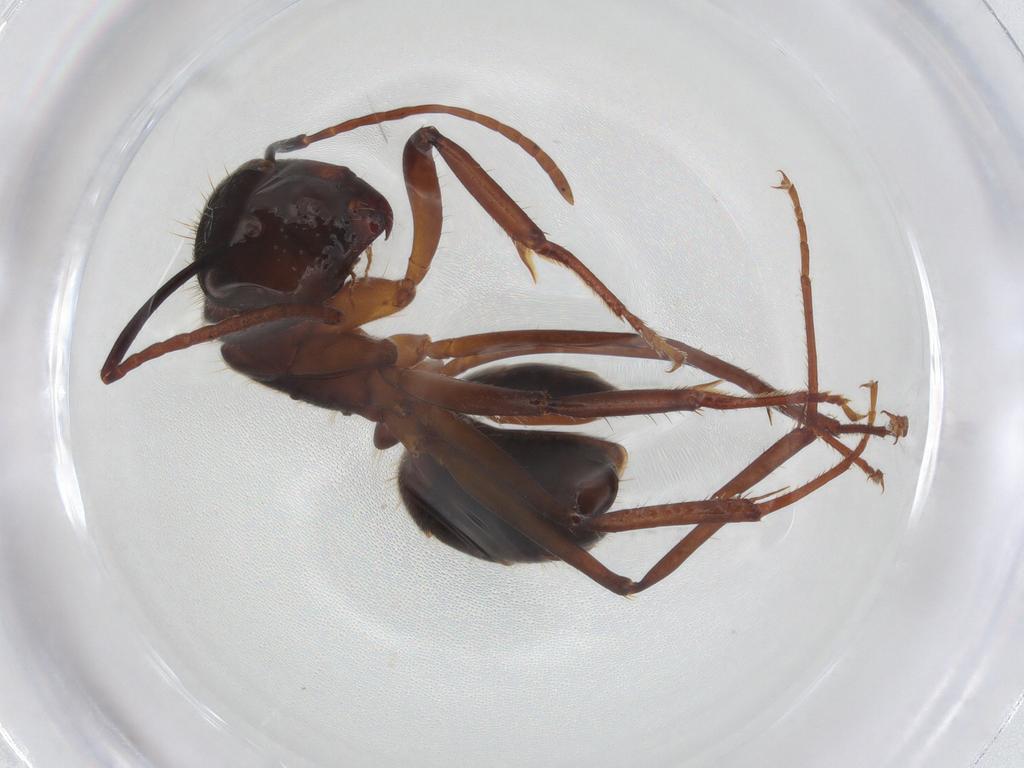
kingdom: Animalia
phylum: Arthropoda
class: Insecta
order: Hymenoptera
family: Formicidae
